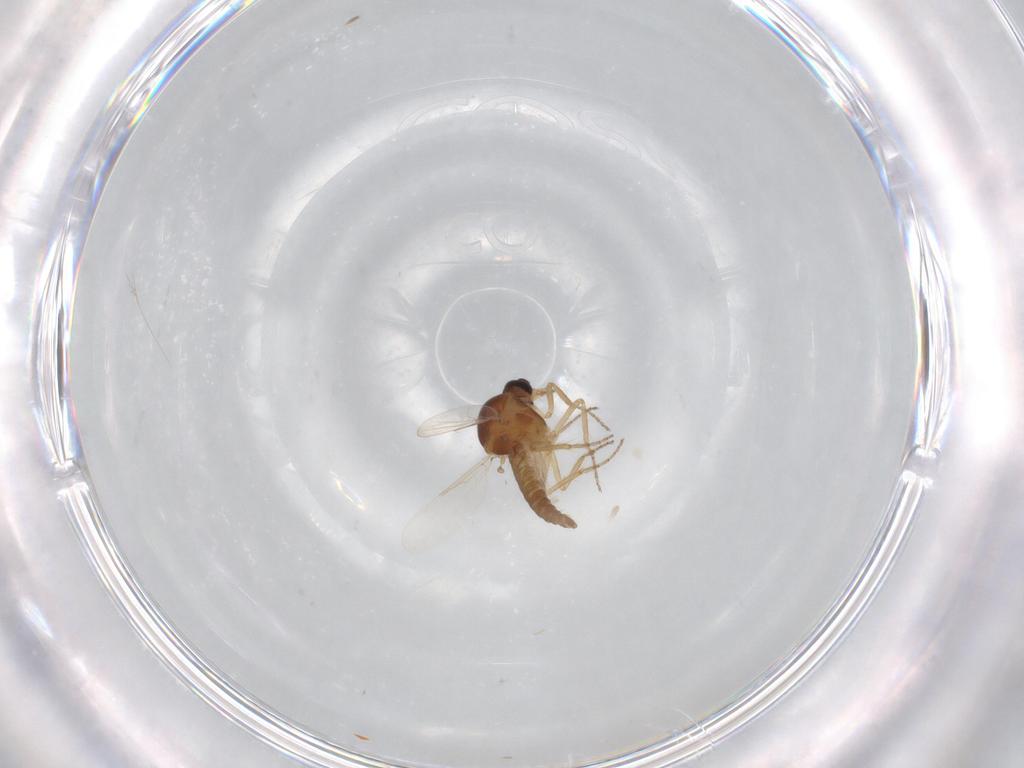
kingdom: Animalia
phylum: Arthropoda
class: Insecta
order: Diptera
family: Ceratopogonidae
